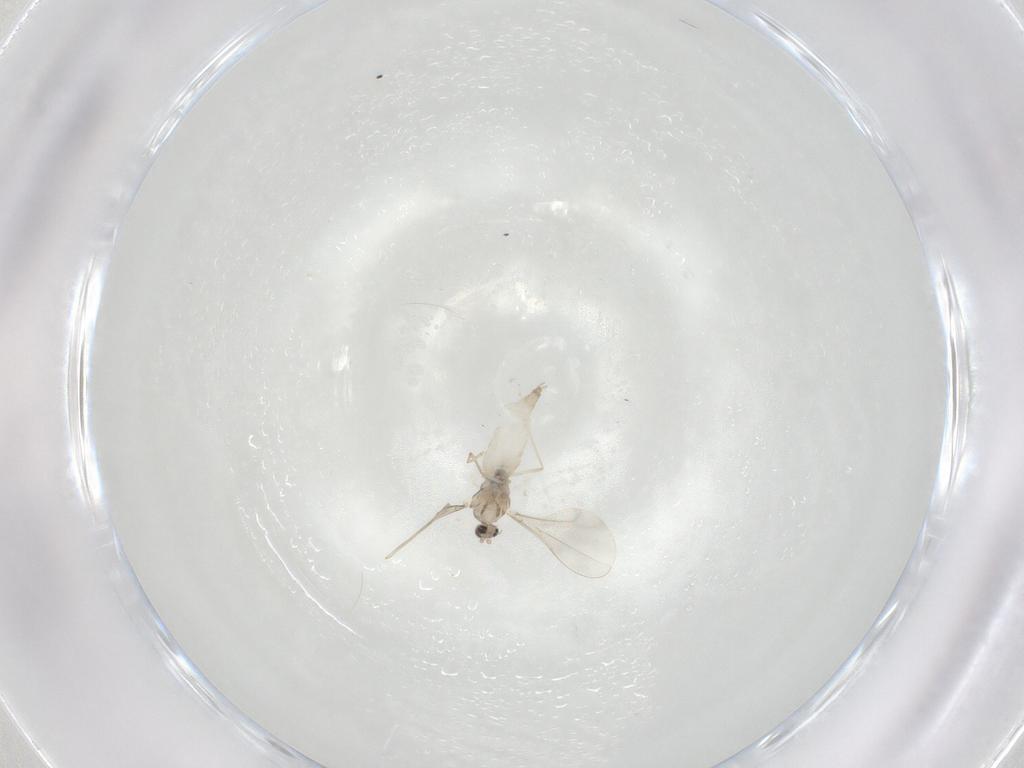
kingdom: Animalia
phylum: Arthropoda
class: Insecta
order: Diptera
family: Cecidomyiidae
